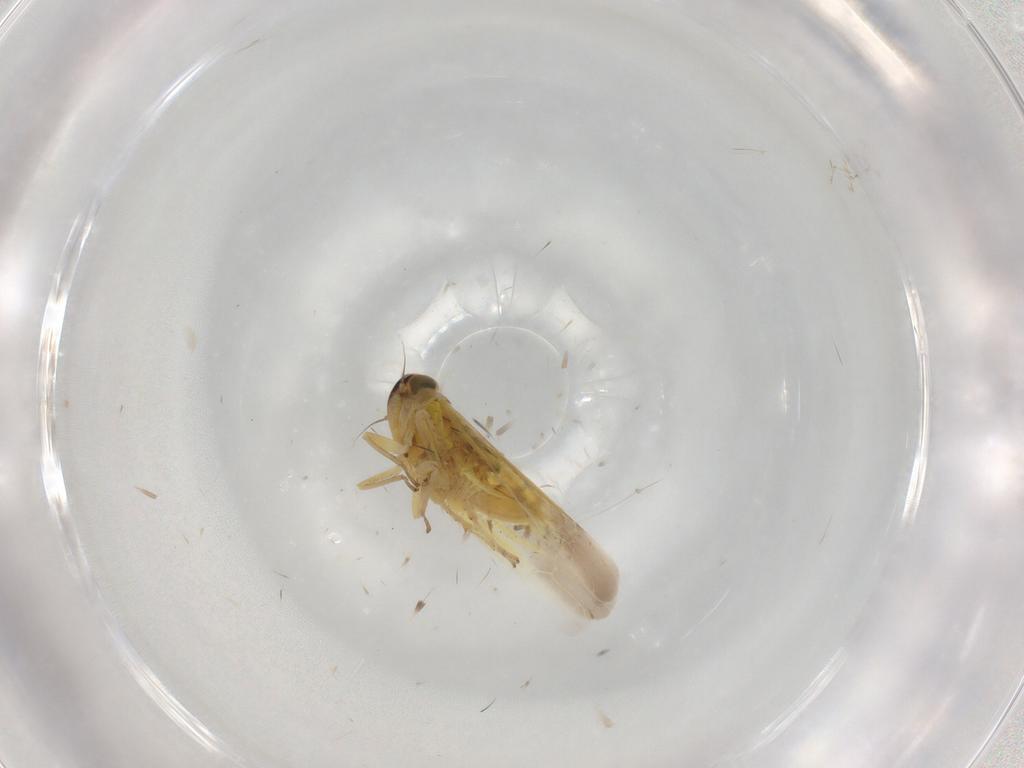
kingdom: Animalia
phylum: Arthropoda
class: Insecta
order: Hemiptera
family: Cicadellidae
